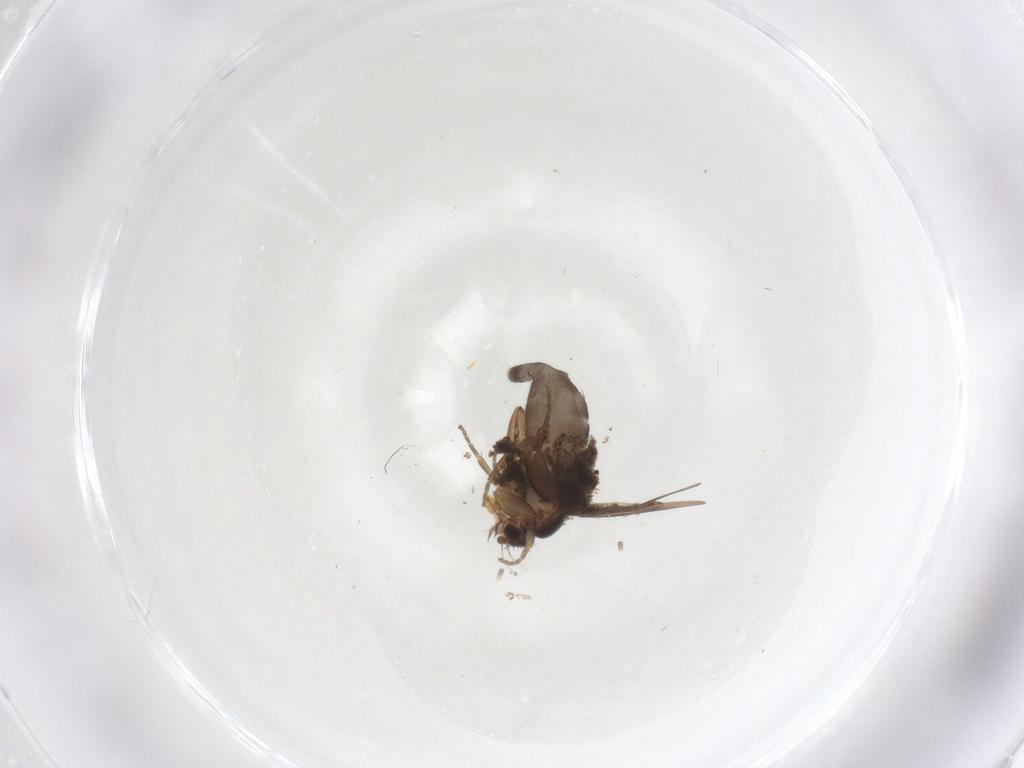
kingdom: Animalia
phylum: Arthropoda
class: Insecta
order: Diptera
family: Phoridae
